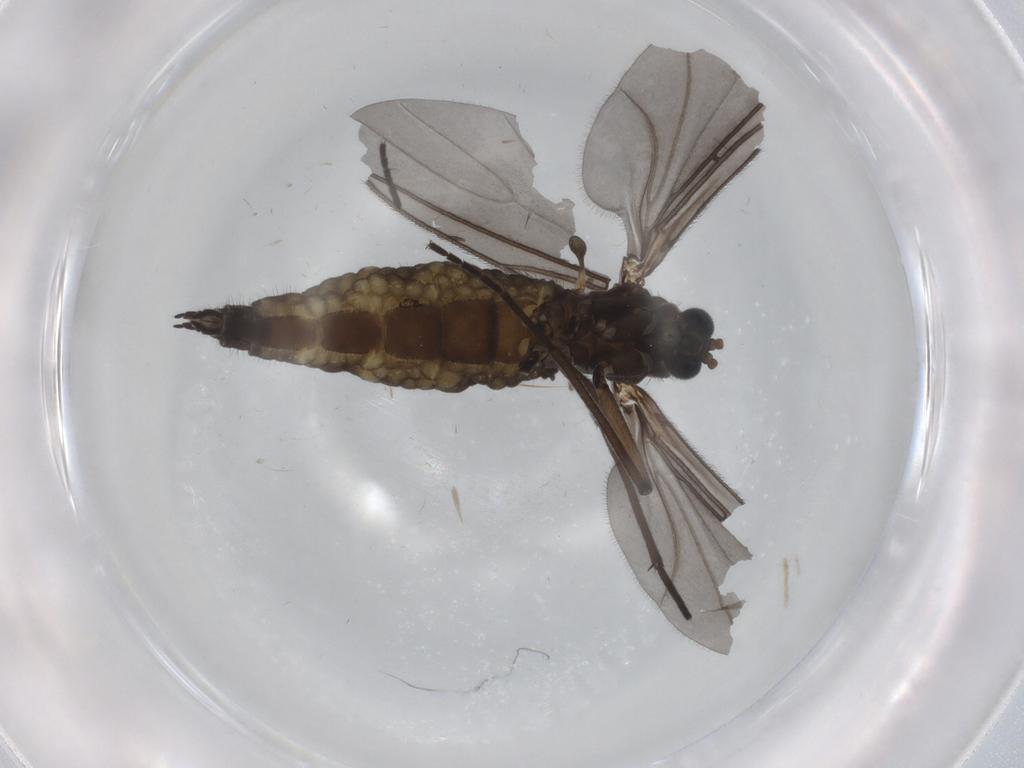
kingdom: Animalia
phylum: Arthropoda
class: Insecta
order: Diptera
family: Sciaridae
